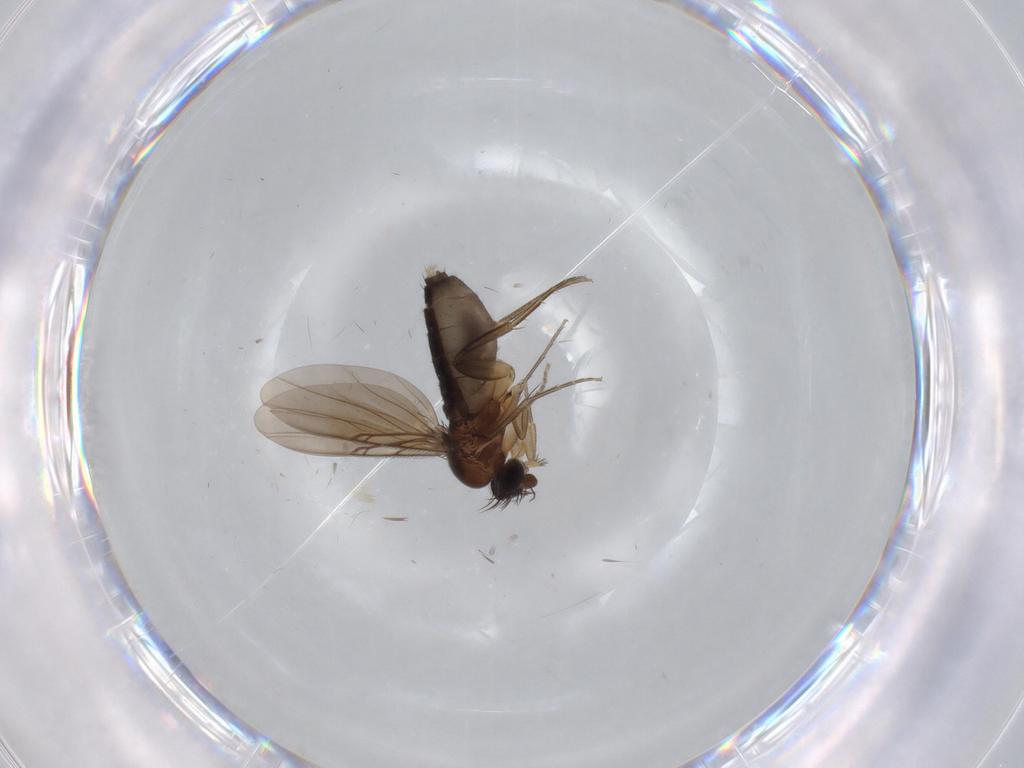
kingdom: Animalia
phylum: Arthropoda
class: Insecta
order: Diptera
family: Phoridae
